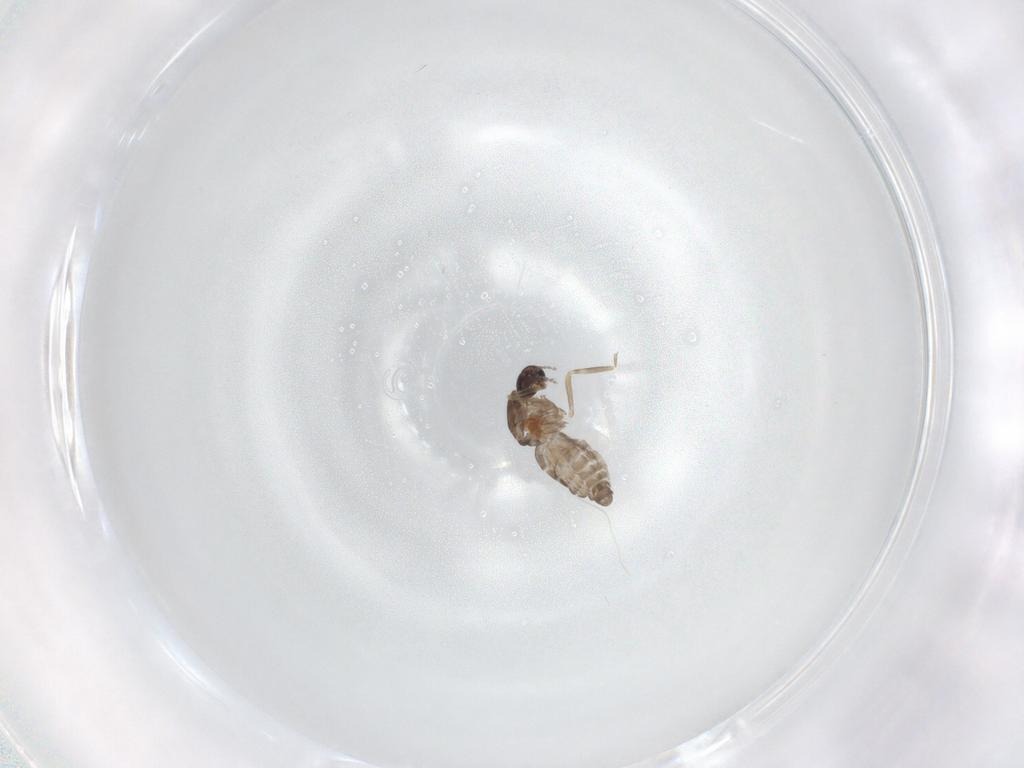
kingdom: Animalia
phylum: Arthropoda
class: Insecta
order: Diptera
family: Ceratopogonidae
